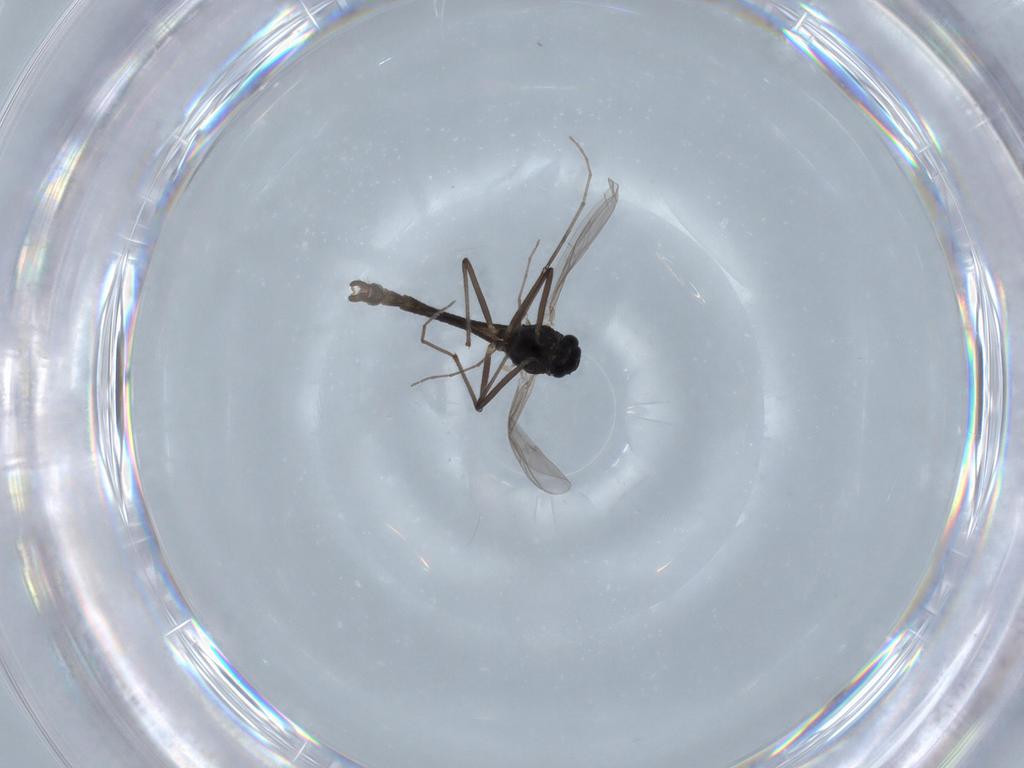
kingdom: Animalia
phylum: Arthropoda
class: Insecta
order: Diptera
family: Chironomidae
